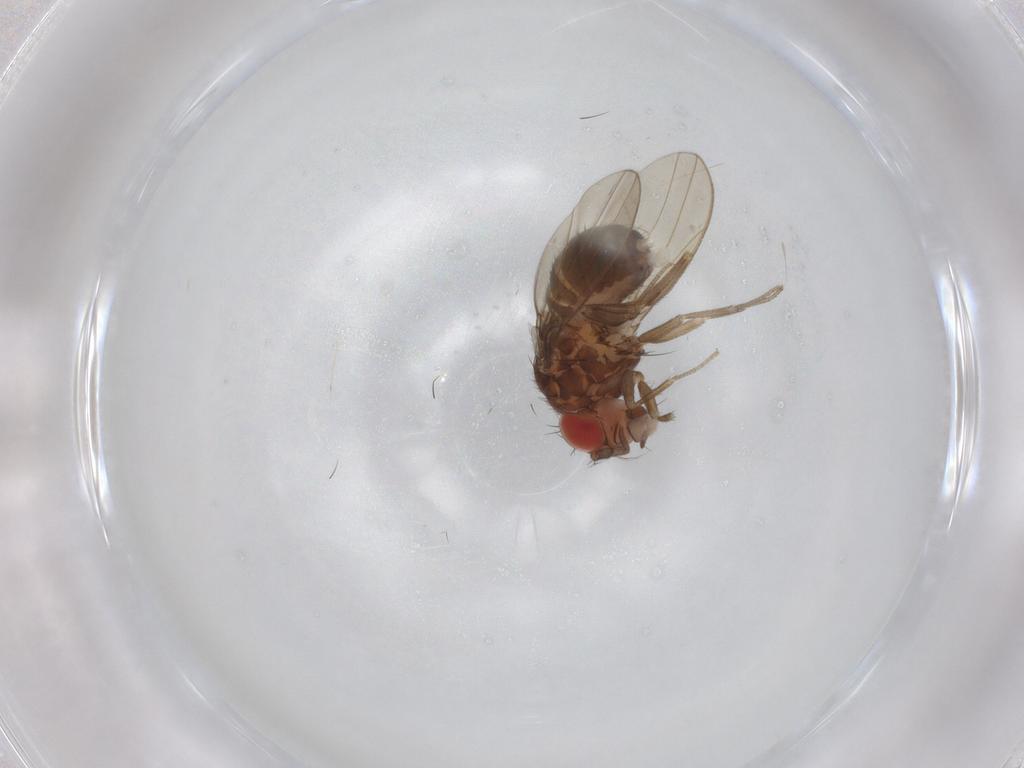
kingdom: Animalia
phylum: Arthropoda
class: Insecta
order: Diptera
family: Drosophilidae
